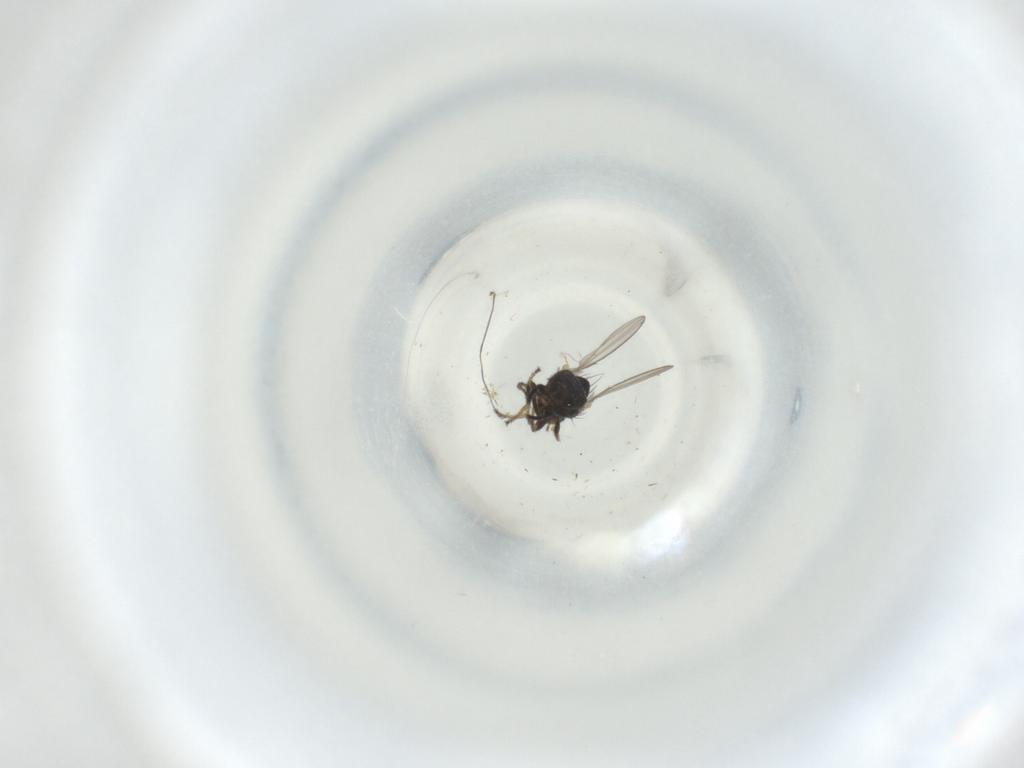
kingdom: Animalia
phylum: Arthropoda
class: Insecta
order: Diptera
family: Milichiidae
